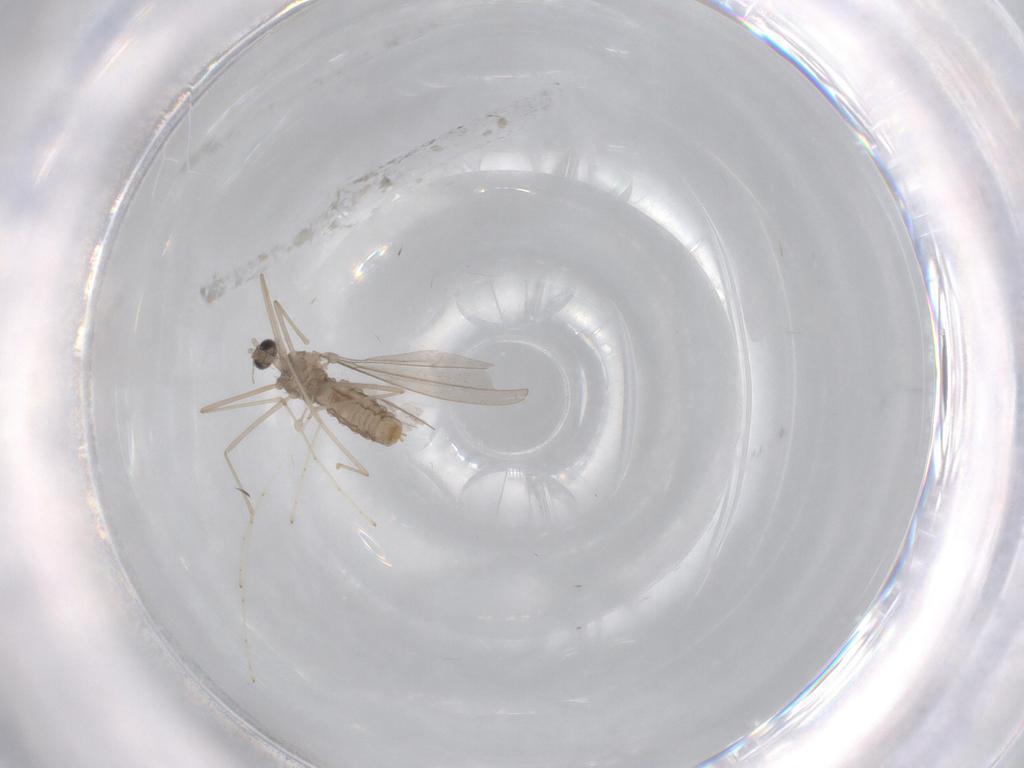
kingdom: Animalia
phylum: Arthropoda
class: Insecta
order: Diptera
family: Cecidomyiidae
